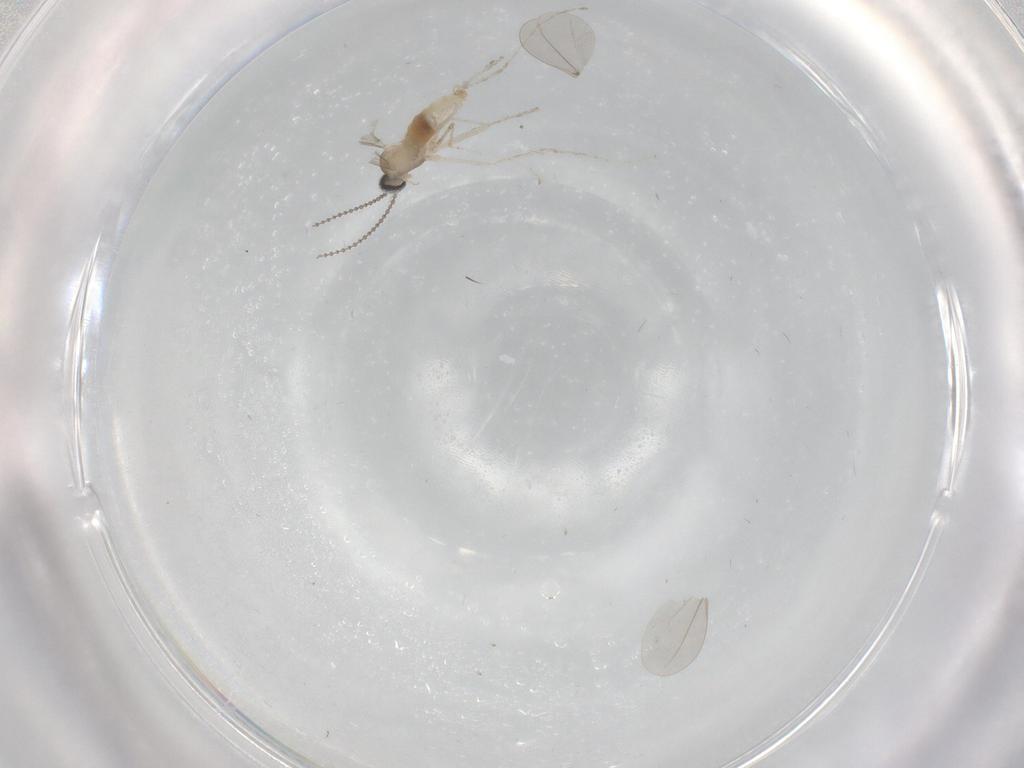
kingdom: Animalia
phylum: Arthropoda
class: Insecta
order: Diptera
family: Cecidomyiidae
